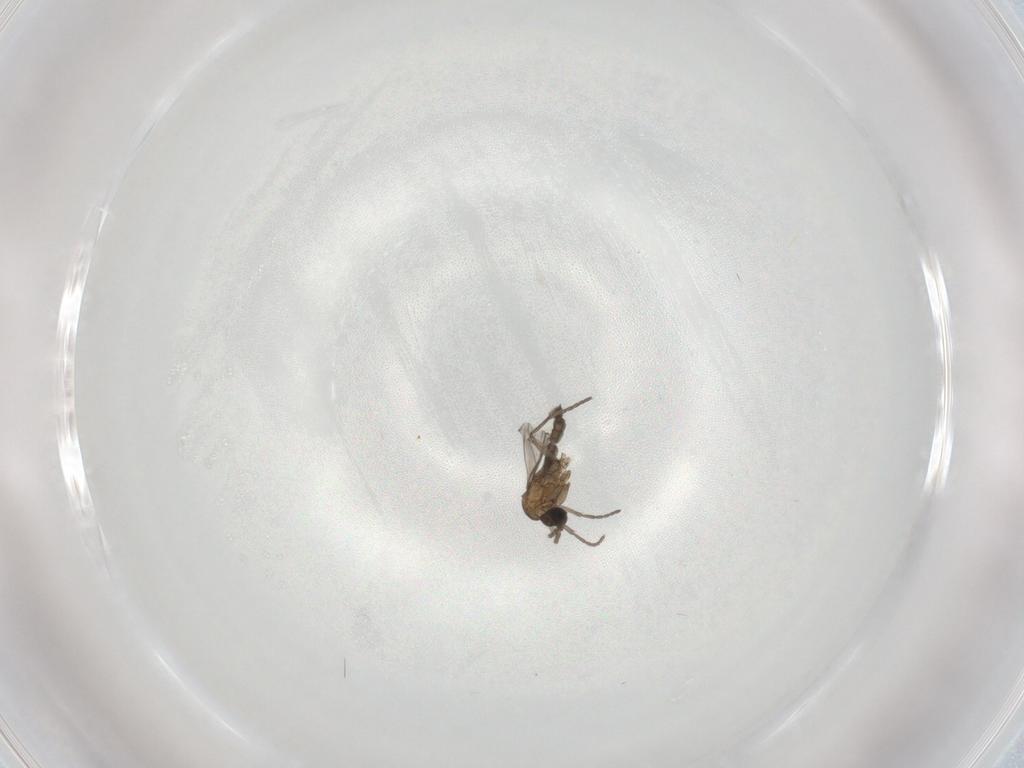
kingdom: Animalia
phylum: Arthropoda
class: Insecta
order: Diptera
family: Sciaridae
